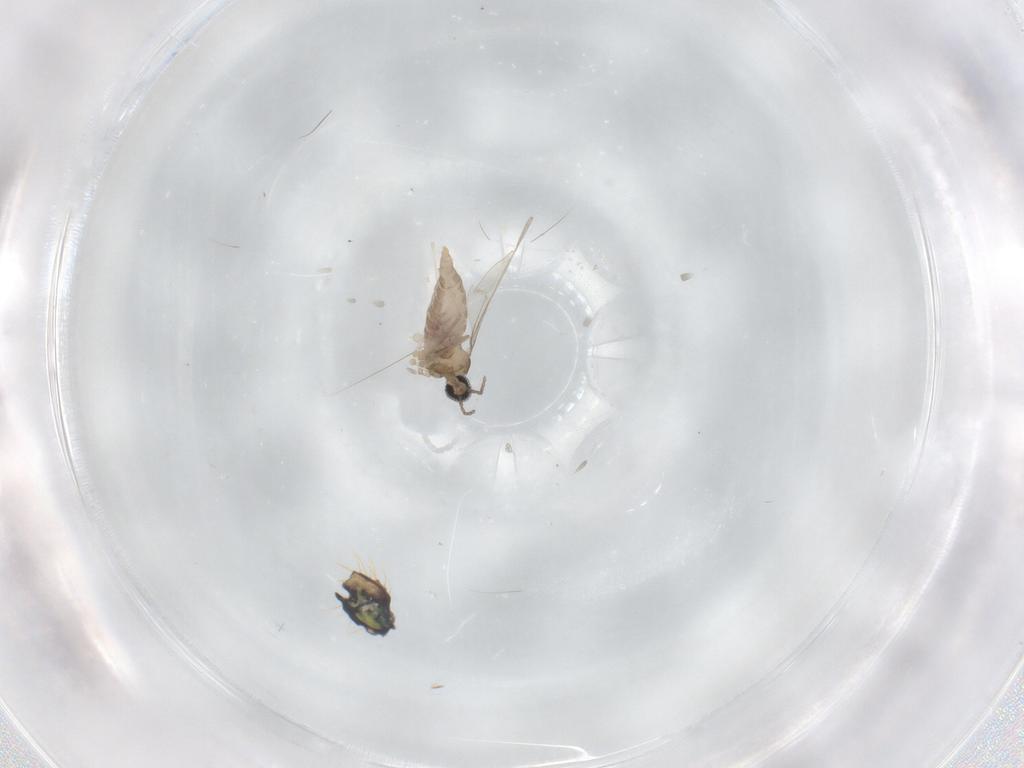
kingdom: Animalia
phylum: Arthropoda
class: Insecta
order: Diptera
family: Cecidomyiidae
